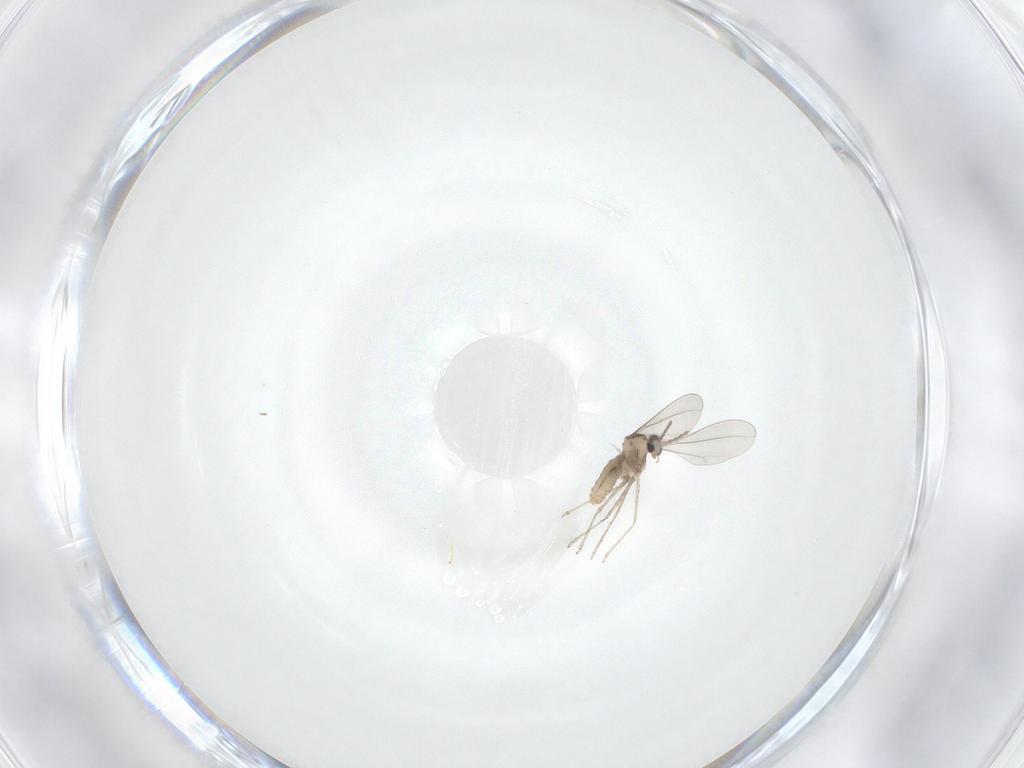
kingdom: Animalia
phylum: Arthropoda
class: Insecta
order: Diptera
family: Cecidomyiidae
